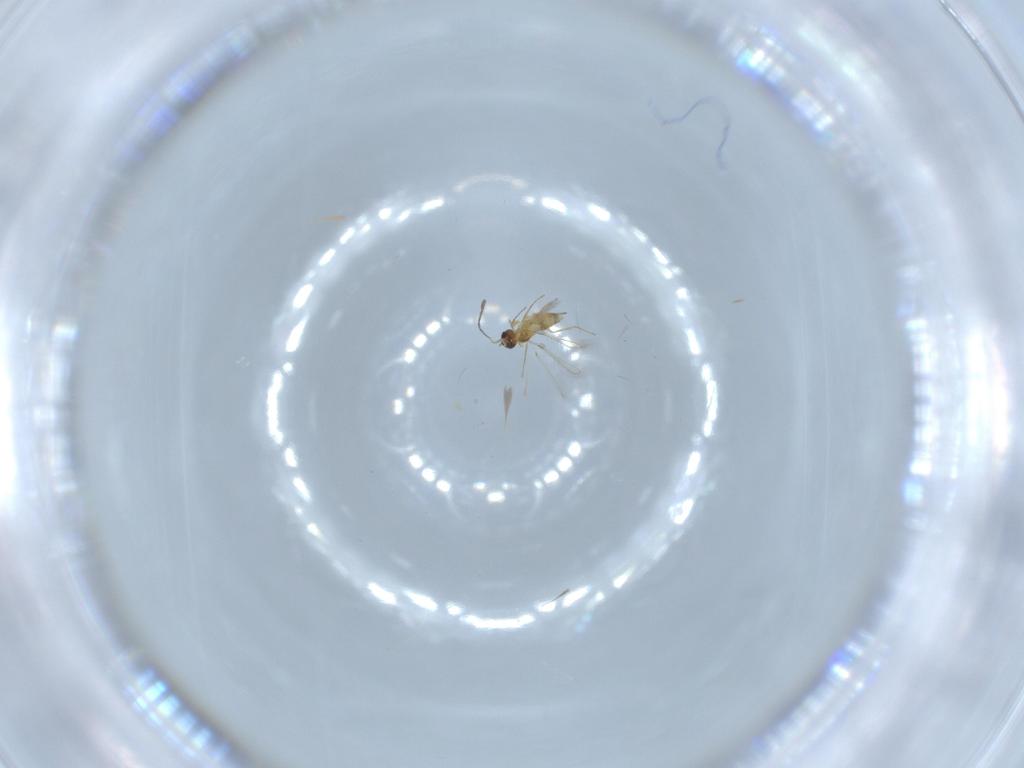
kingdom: Animalia
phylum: Arthropoda
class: Insecta
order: Hymenoptera
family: Mymaridae
